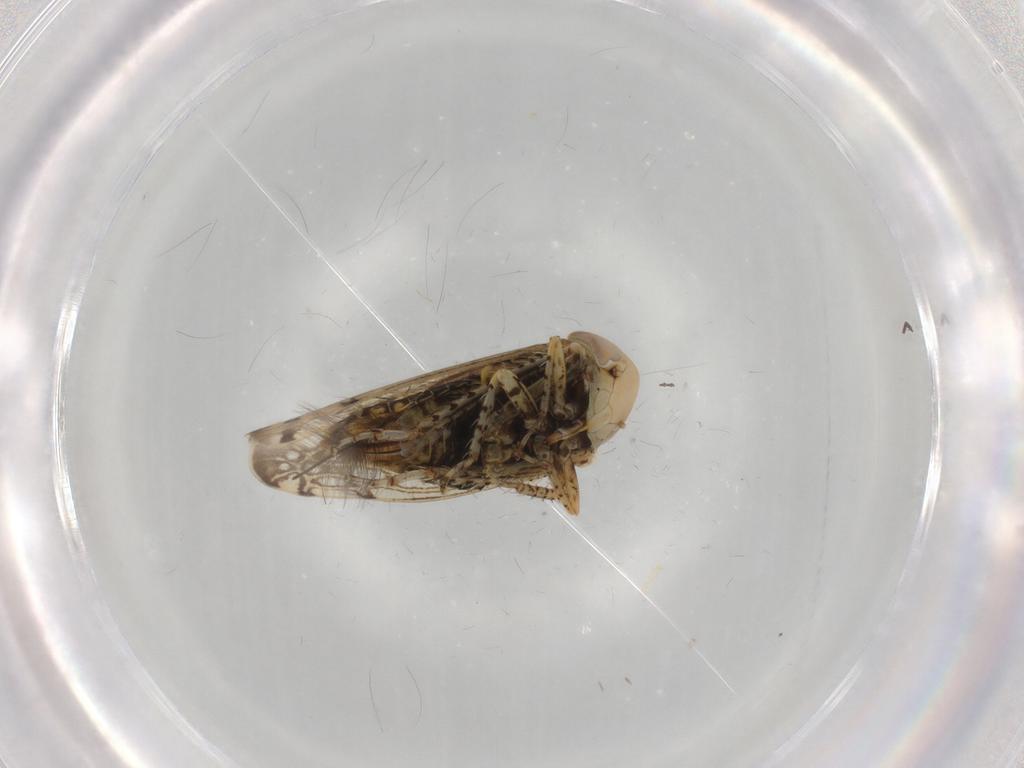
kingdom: Animalia
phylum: Arthropoda
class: Insecta
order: Hemiptera
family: Cicadellidae
